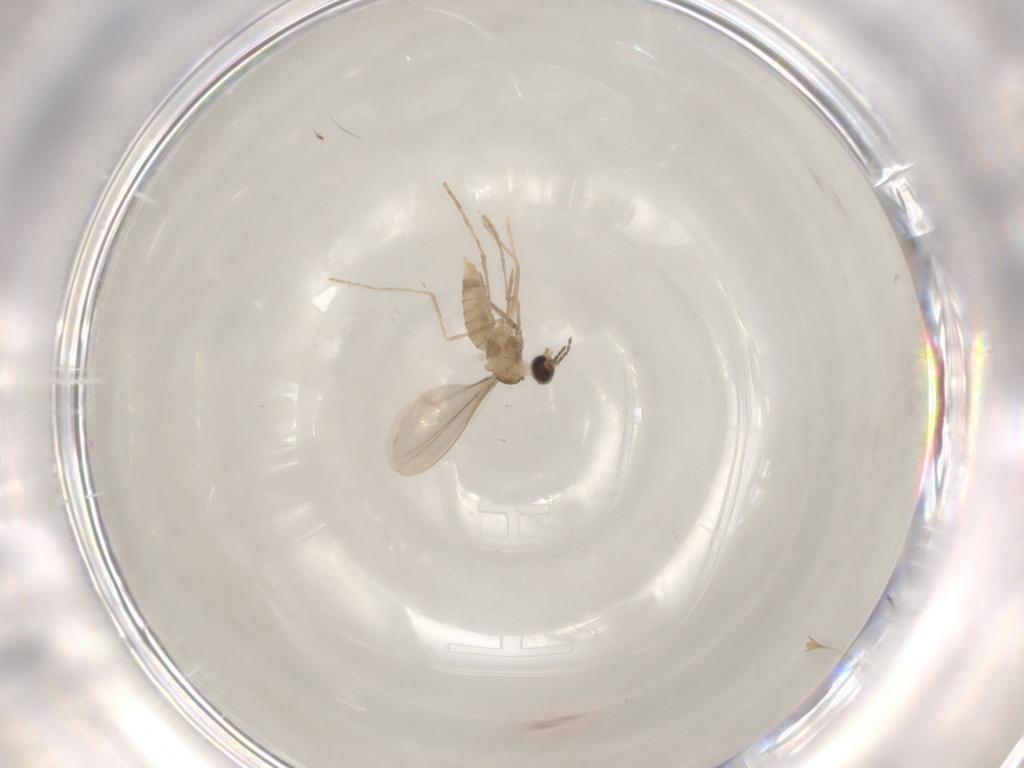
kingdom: Animalia
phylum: Arthropoda
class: Insecta
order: Diptera
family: Cecidomyiidae
